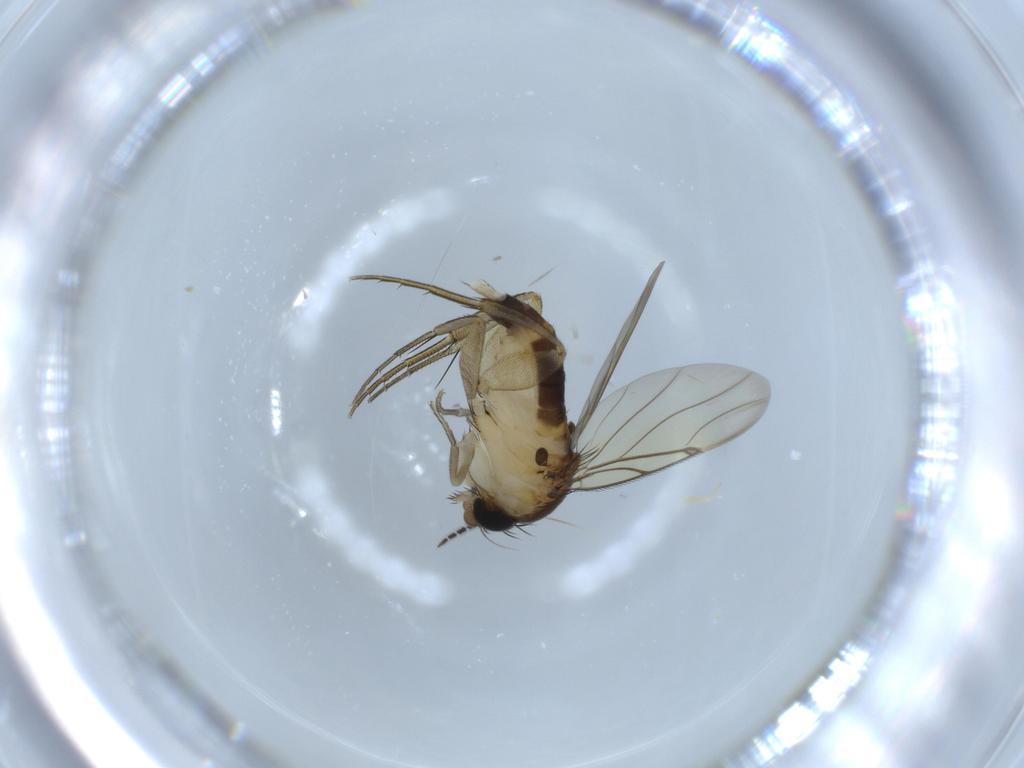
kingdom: Animalia
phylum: Arthropoda
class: Insecta
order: Diptera
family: Sciaridae
